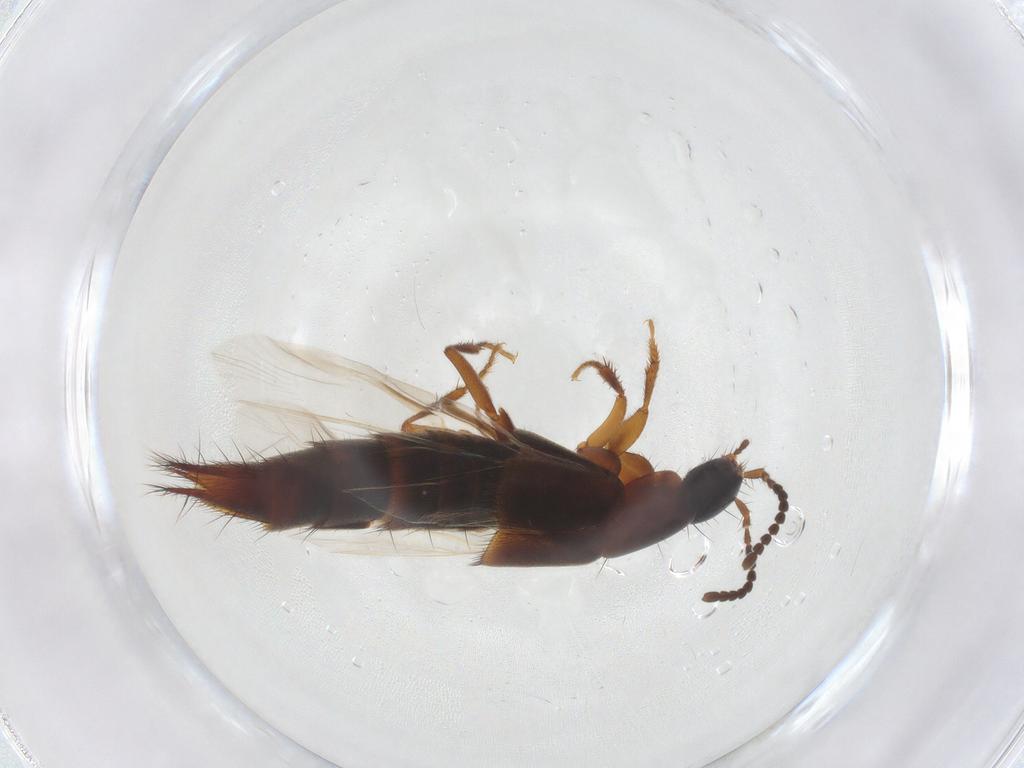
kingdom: Animalia
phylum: Arthropoda
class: Insecta
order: Coleoptera
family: Staphylinidae
